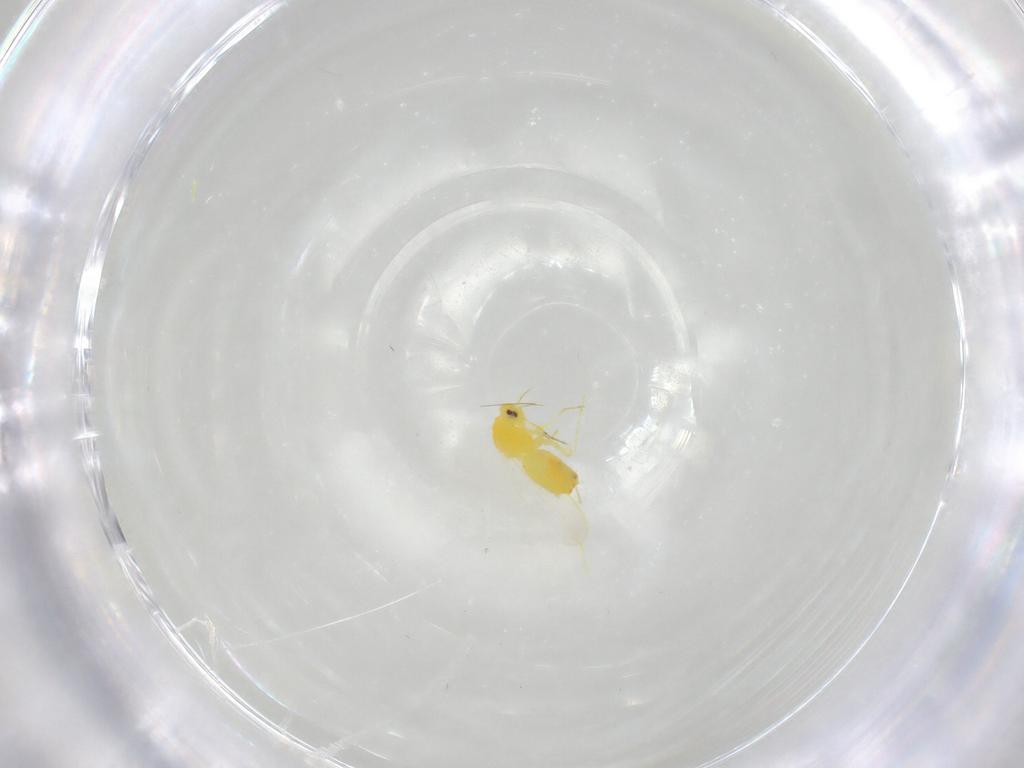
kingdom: Animalia
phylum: Arthropoda
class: Insecta
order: Hemiptera
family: Aleyrodidae
